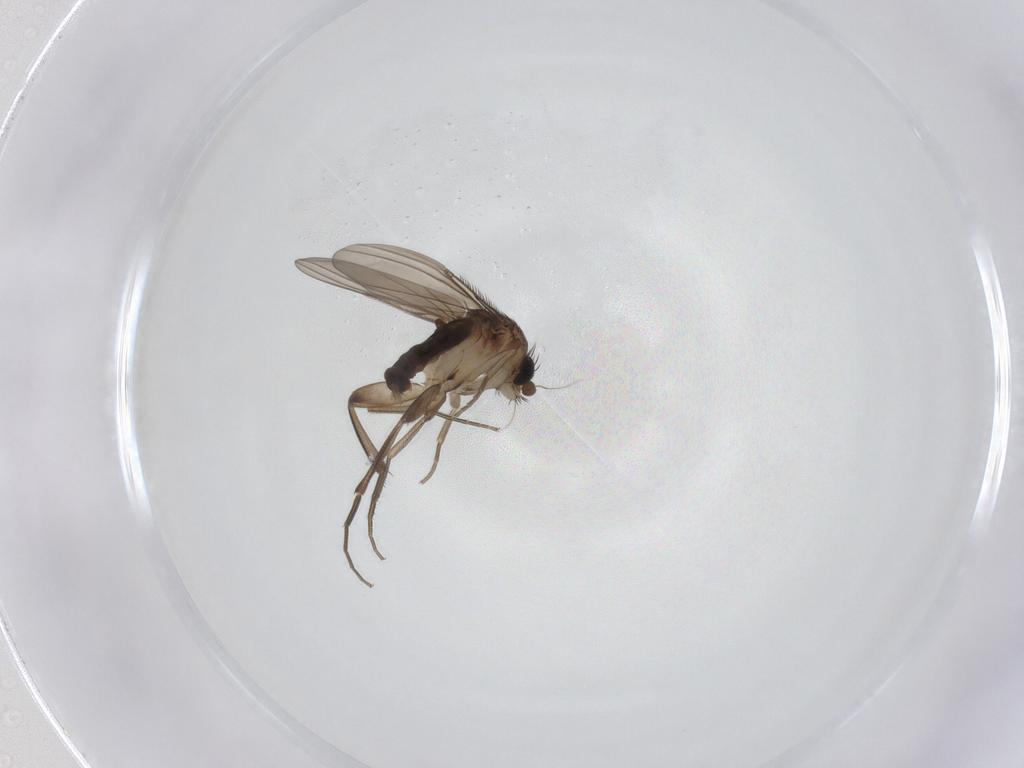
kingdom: Animalia
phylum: Arthropoda
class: Insecta
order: Diptera
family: Phoridae
